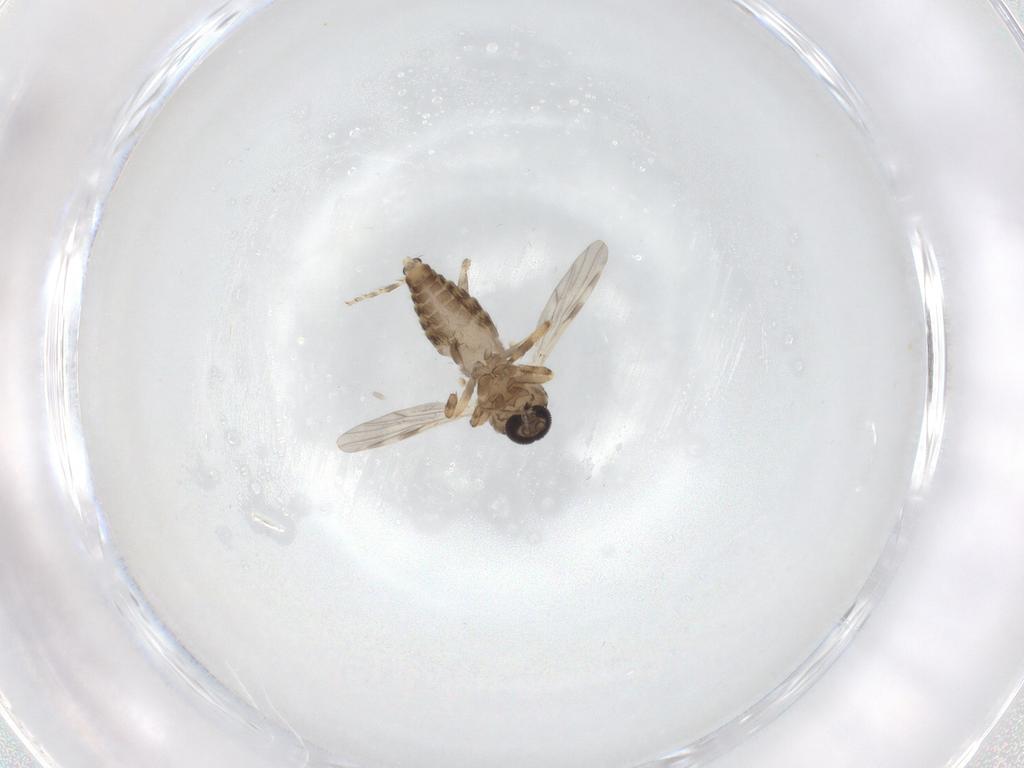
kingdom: Animalia
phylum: Arthropoda
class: Insecta
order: Diptera
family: Ceratopogonidae
